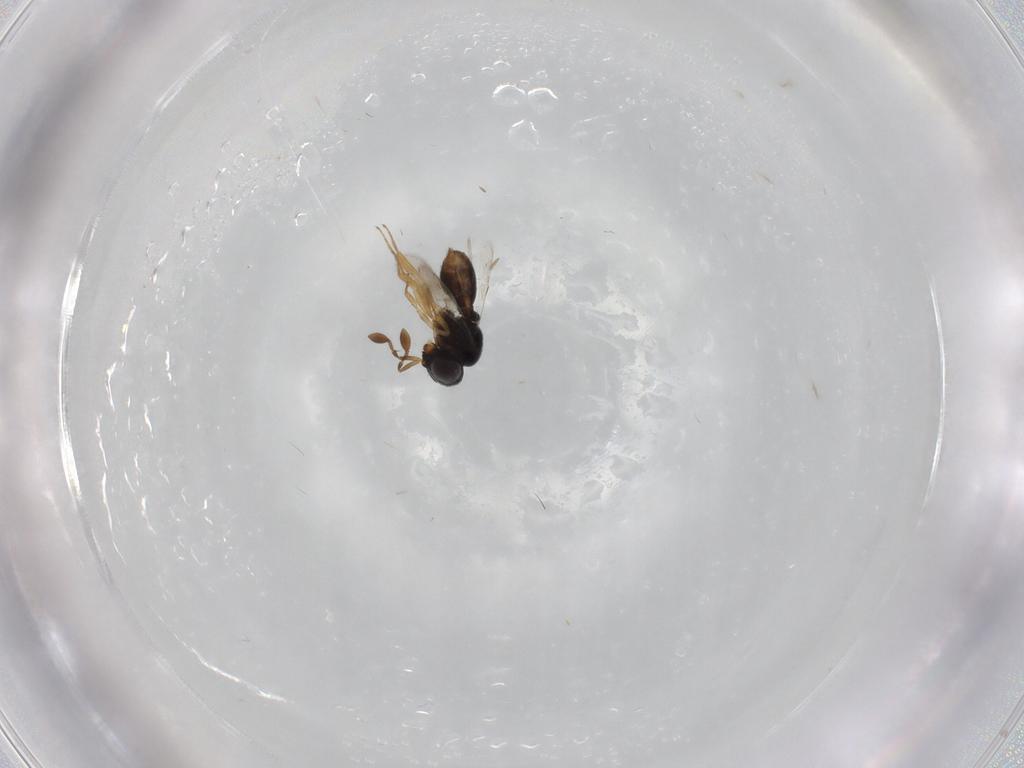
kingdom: Animalia
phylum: Arthropoda
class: Insecta
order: Hymenoptera
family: Scelionidae
